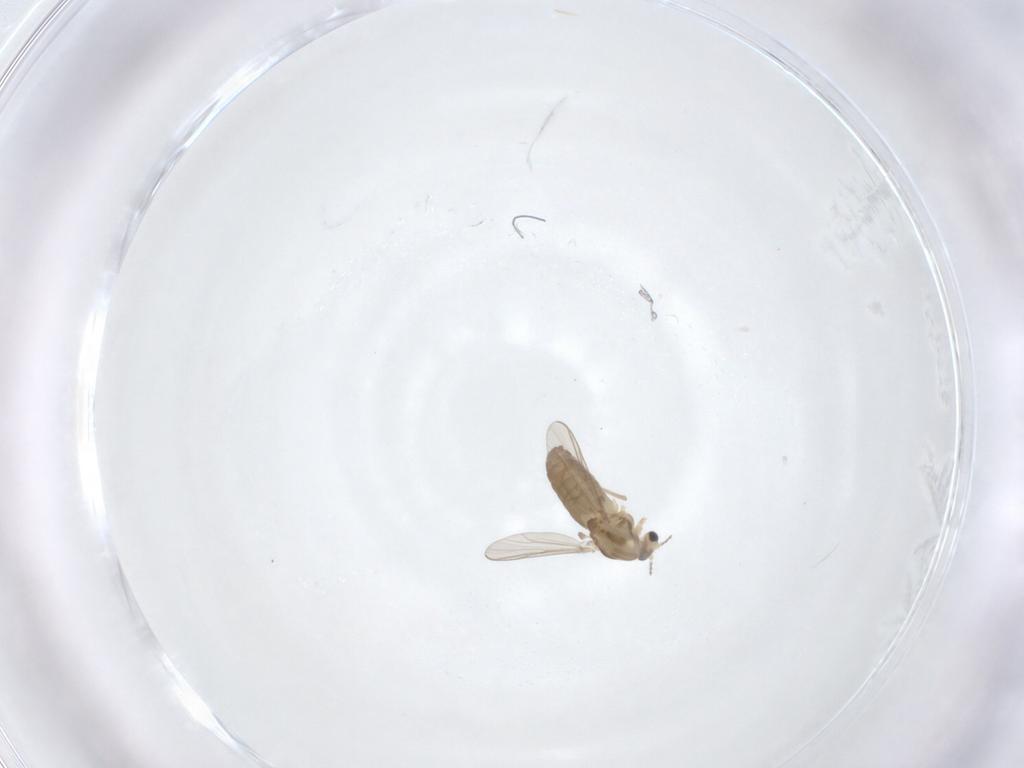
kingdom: Animalia
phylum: Arthropoda
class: Insecta
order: Diptera
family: Chironomidae
